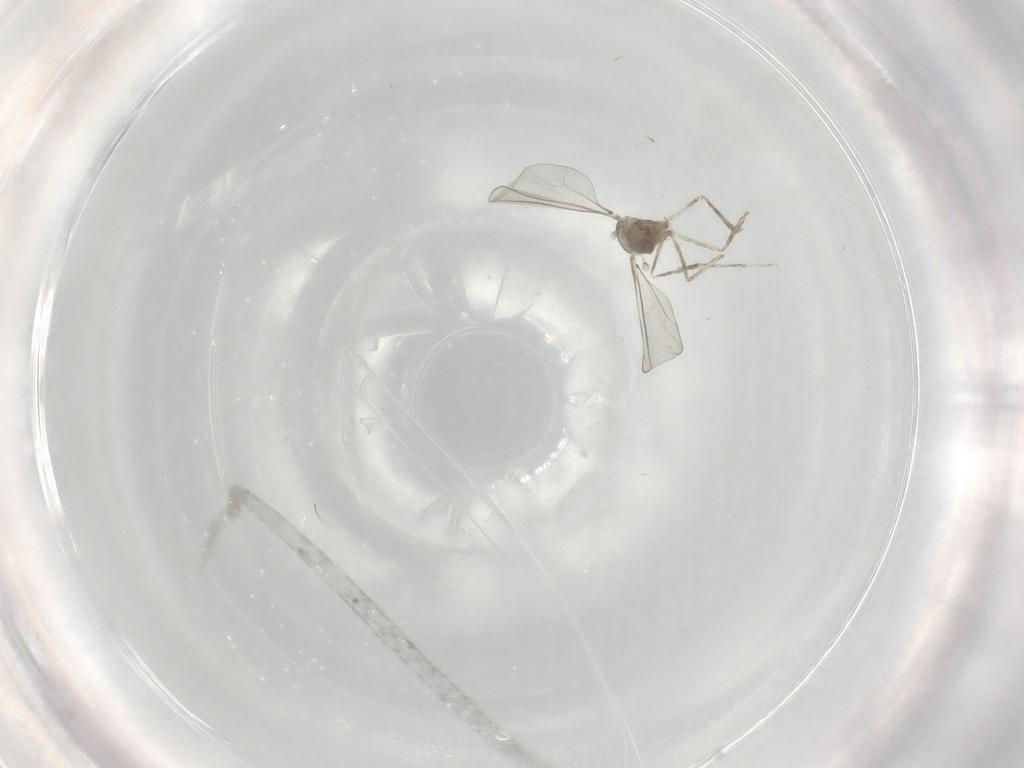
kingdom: Animalia
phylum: Arthropoda
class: Insecta
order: Diptera
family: Cecidomyiidae
